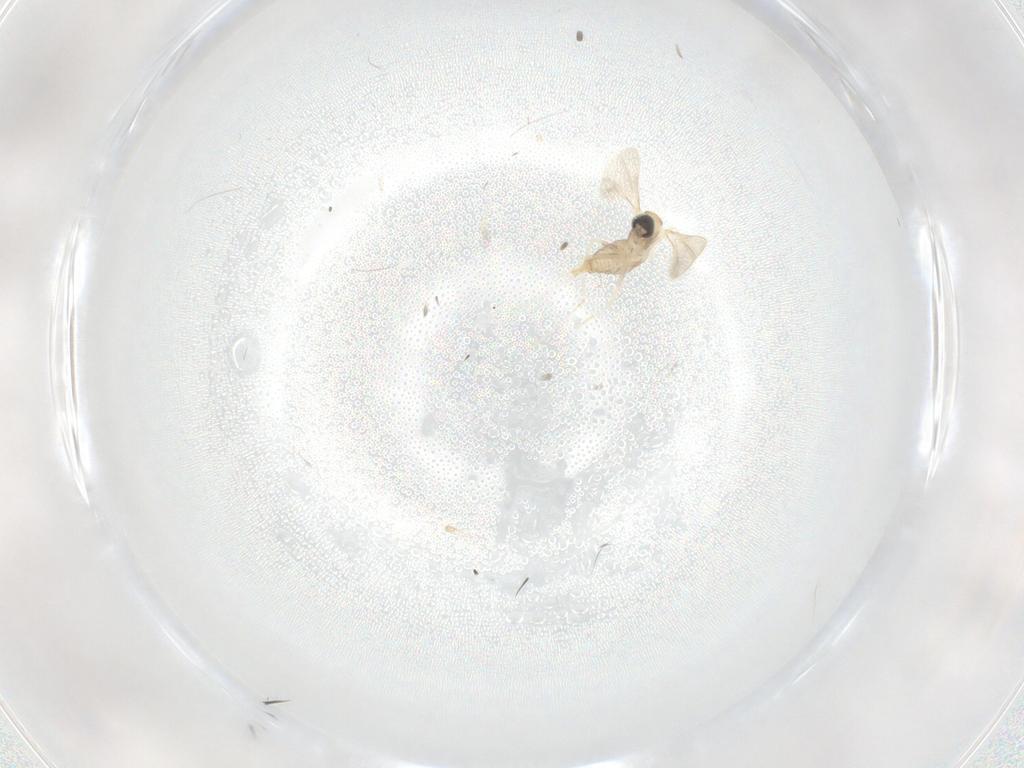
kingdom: Animalia
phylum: Arthropoda
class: Insecta
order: Diptera
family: Cecidomyiidae
